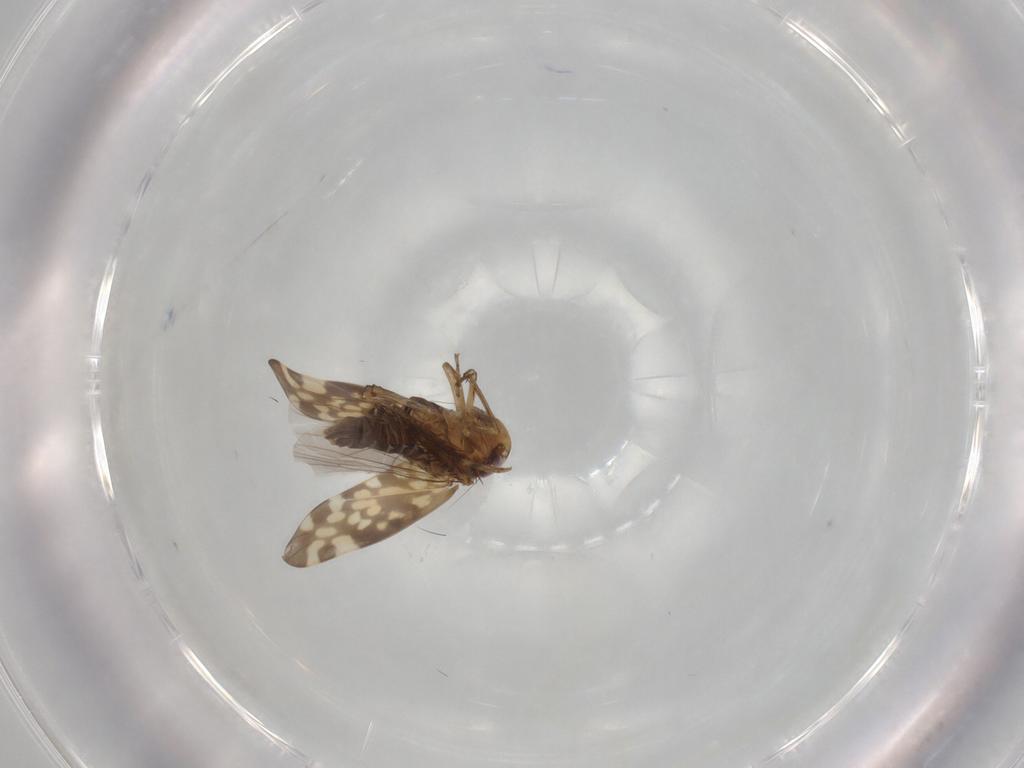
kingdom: Animalia
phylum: Arthropoda
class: Insecta
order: Hemiptera
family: Cicadellidae
